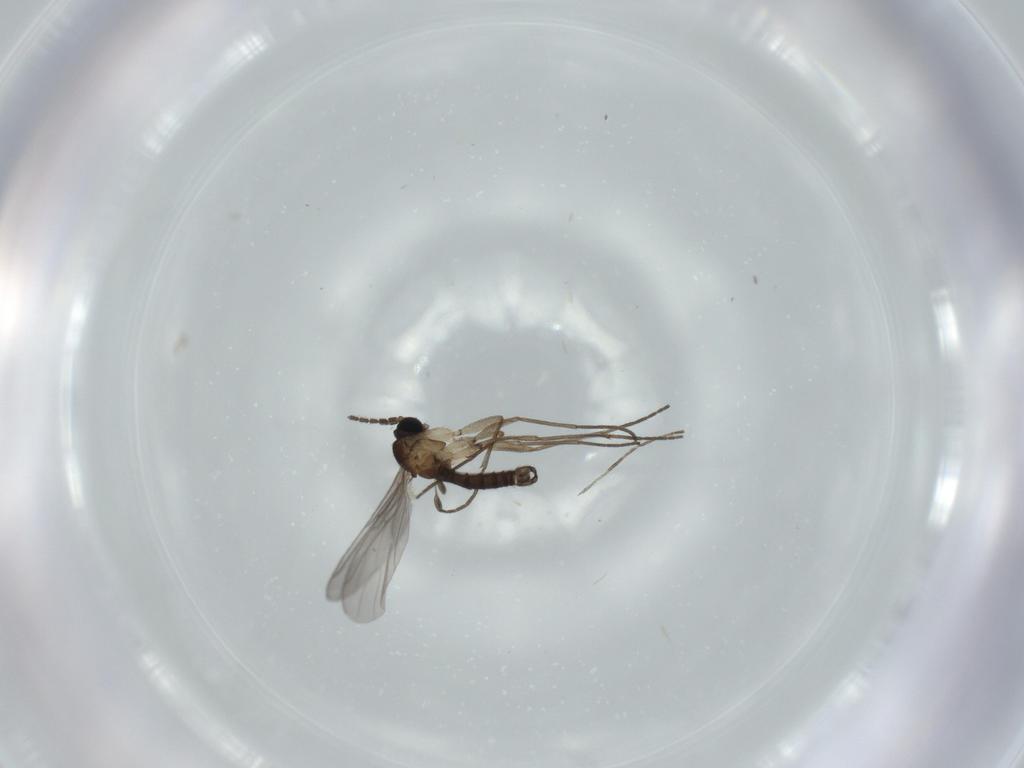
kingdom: Animalia
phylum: Arthropoda
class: Insecta
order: Diptera
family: Sciaridae
